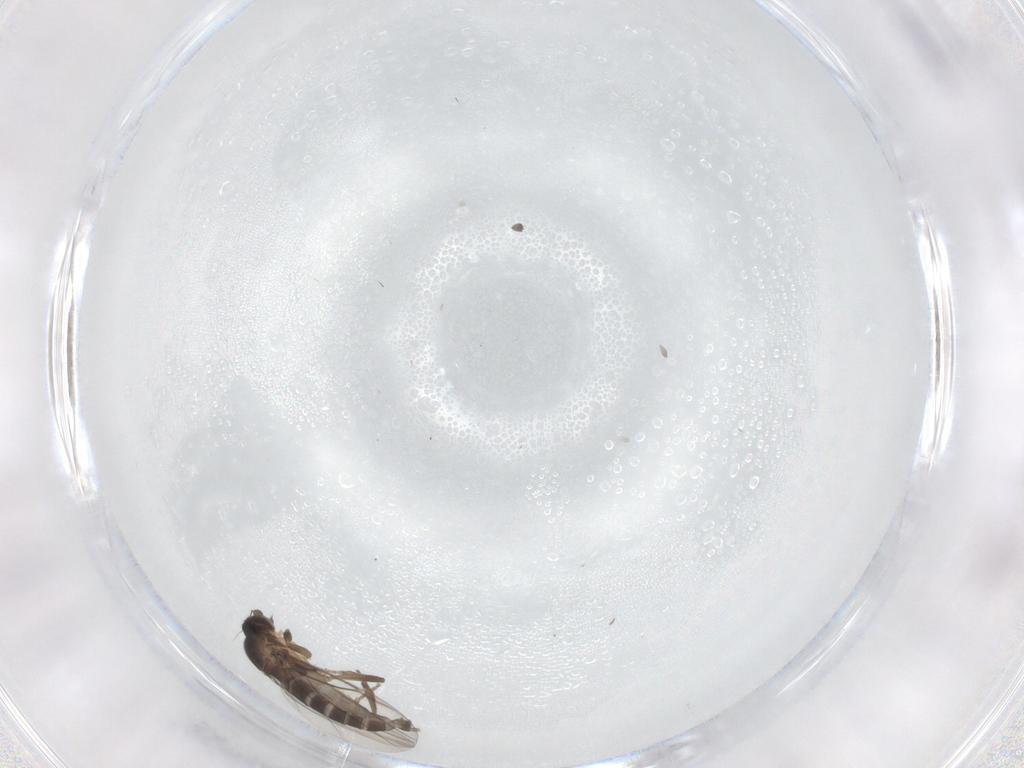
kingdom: Animalia
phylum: Arthropoda
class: Insecta
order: Diptera
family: Phoridae
